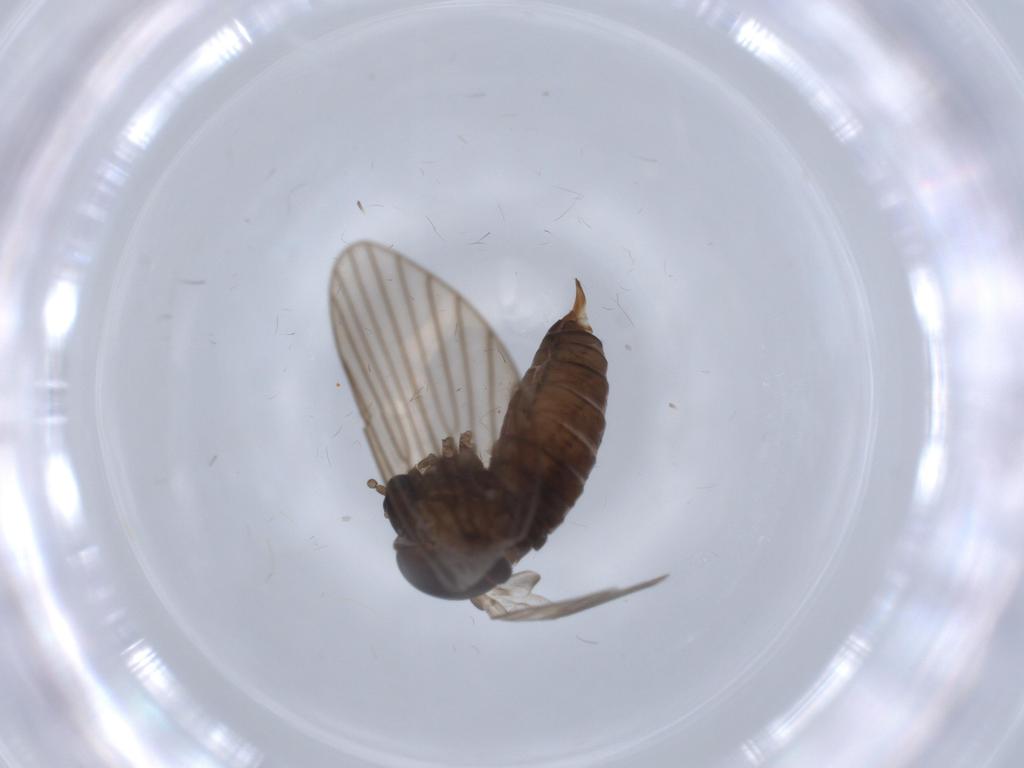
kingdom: Animalia
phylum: Arthropoda
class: Insecta
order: Diptera
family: Psychodidae
